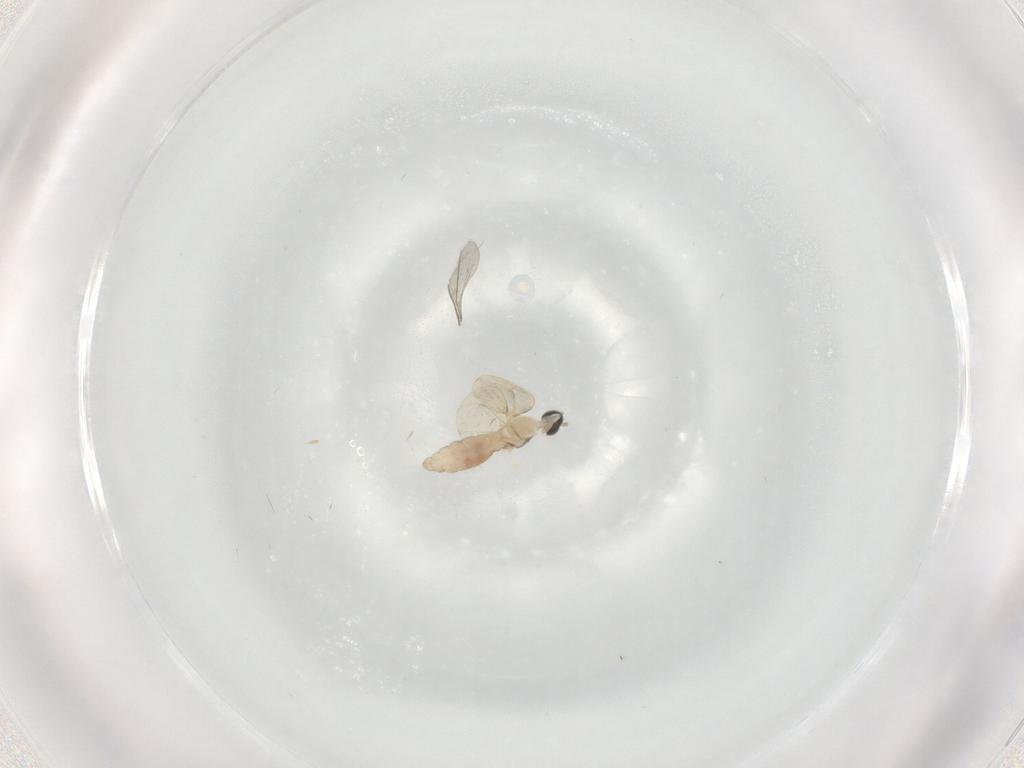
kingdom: Animalia
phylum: Arthropoda
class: Insecta
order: Diptera
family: Cecidomyiidae
